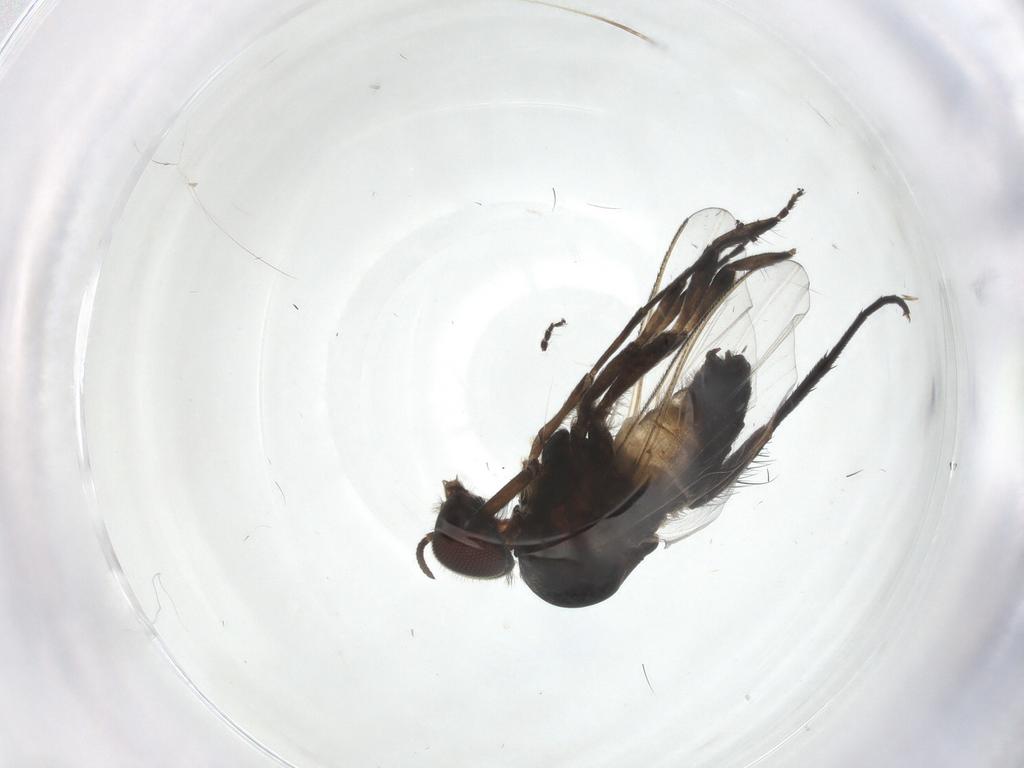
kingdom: Animalia
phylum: Arthropoda
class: Insecta
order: Diptera
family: Simuliidae
